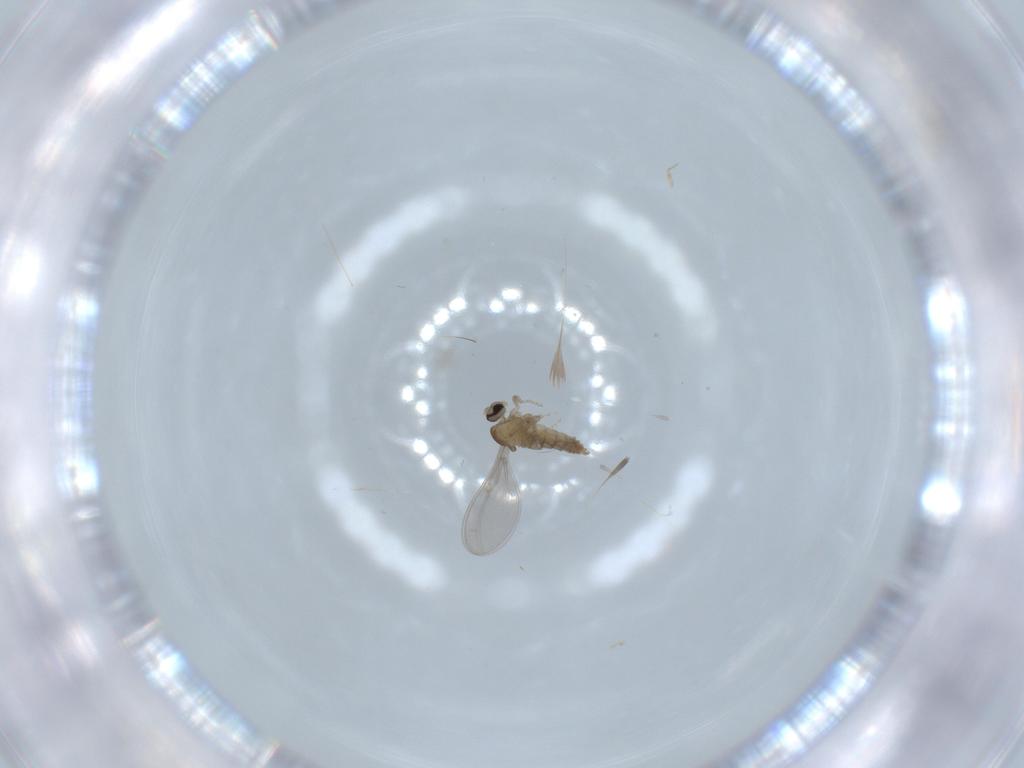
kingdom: Animalia
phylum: Arthropoda
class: Insecta
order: Diptera
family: Cecidomyiidae
